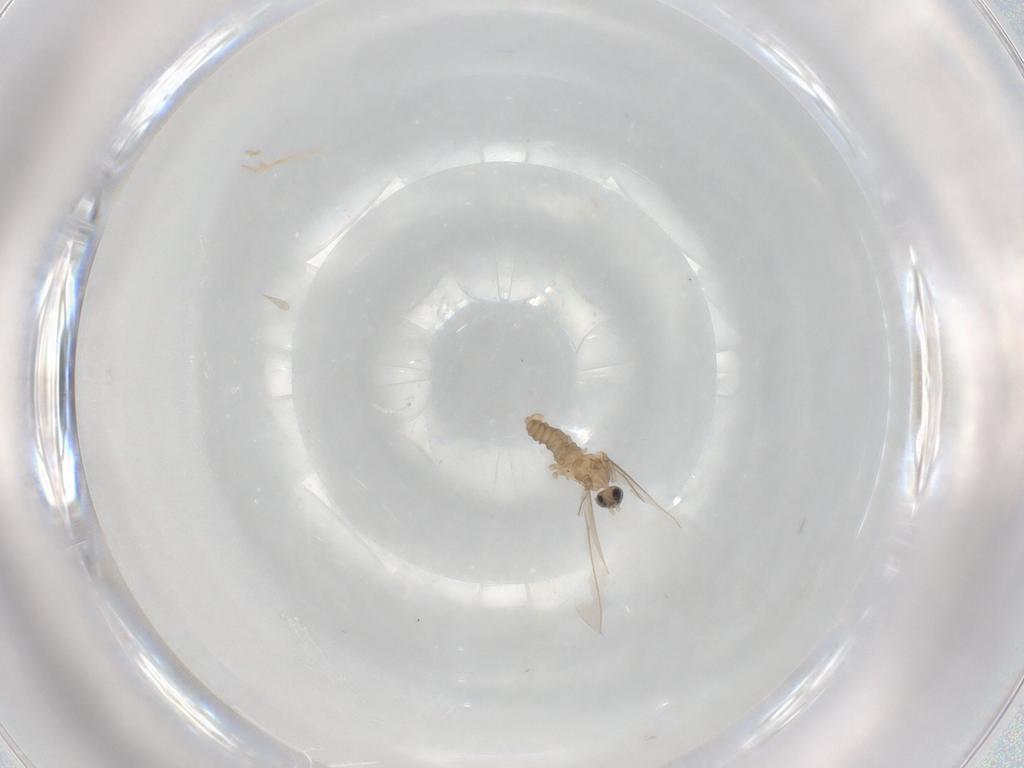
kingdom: Animalia
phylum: Arthropoda
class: Insecta
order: Diptera
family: Cecidomyiidae
